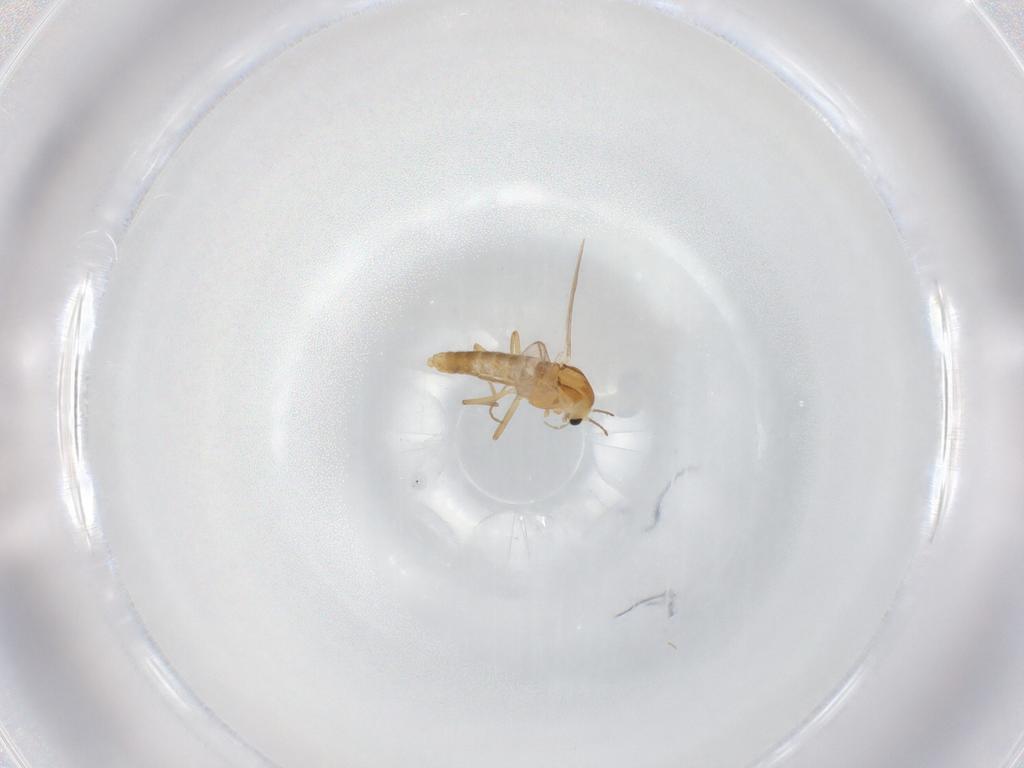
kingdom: Animalia
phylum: Arthropoda
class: Insecta
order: Diptera
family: Chironomidae
